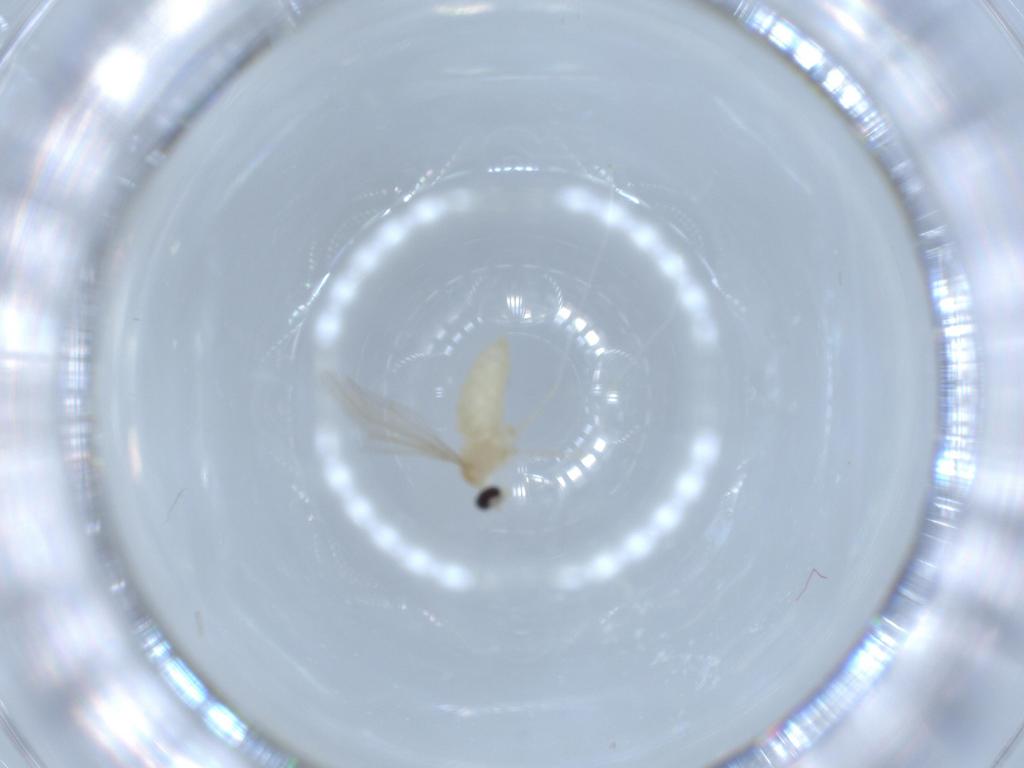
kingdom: Animalia
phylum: Arthropoda
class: Insecta
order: Diptera
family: Cecidomyiidae
